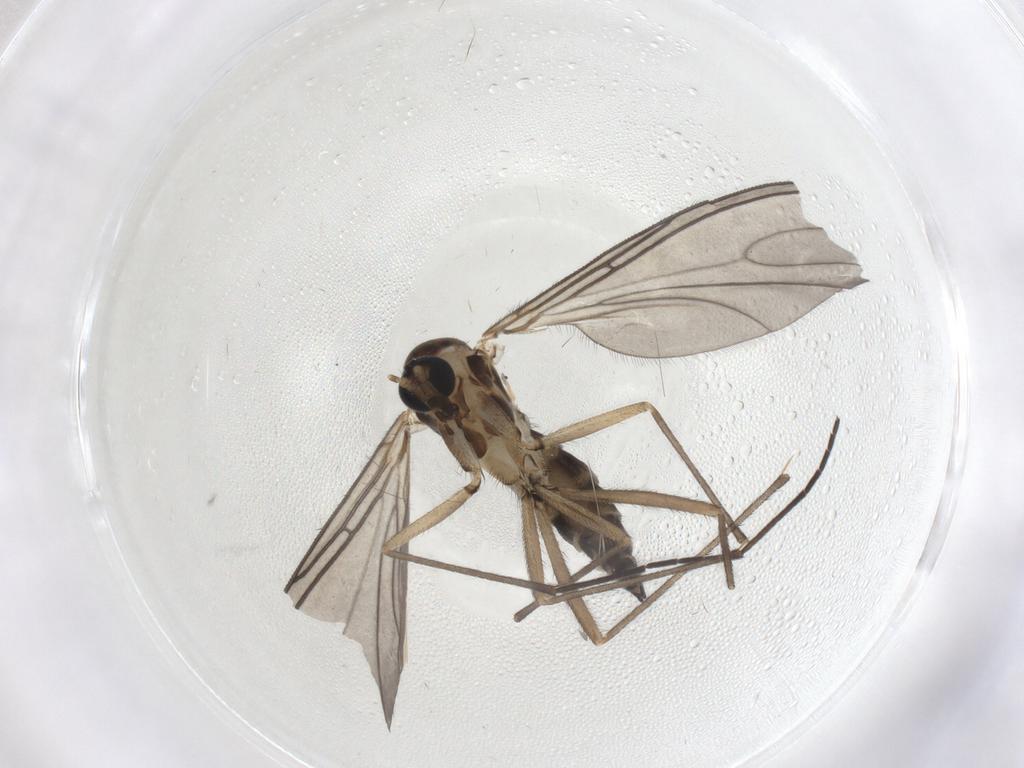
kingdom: Animalia
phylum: Arthropoda
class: Insecta
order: Diptera
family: Sciaridae
